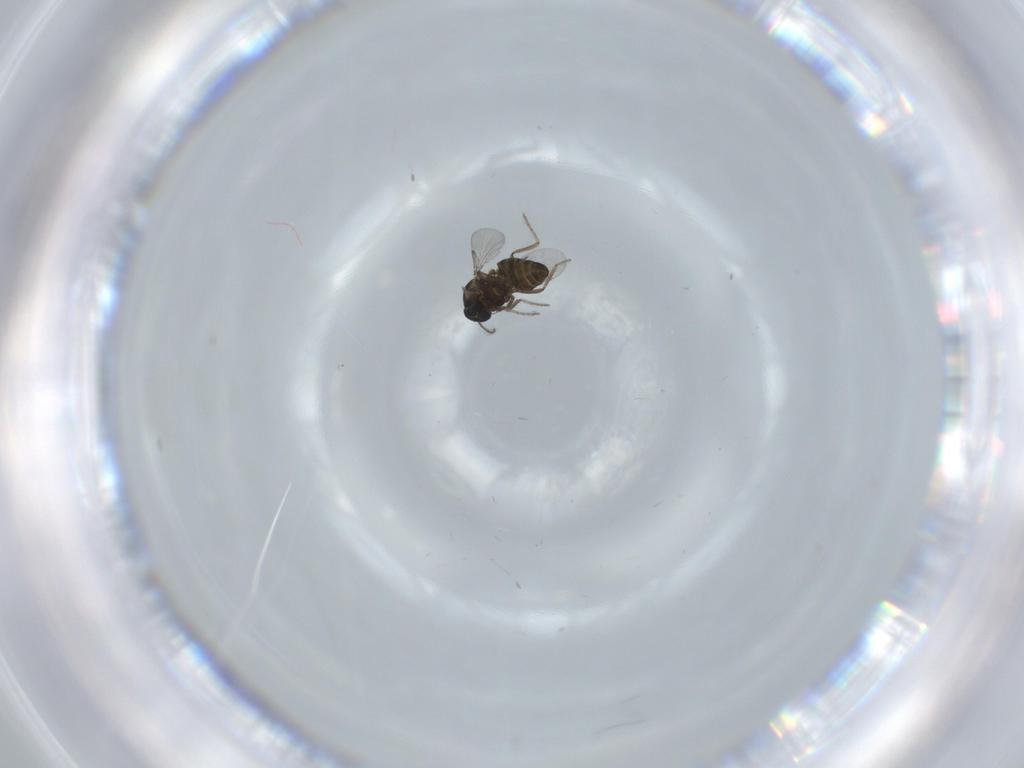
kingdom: Animalia
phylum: Arthropoda
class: Insecta
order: Diptera
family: Ceratopogonidae
